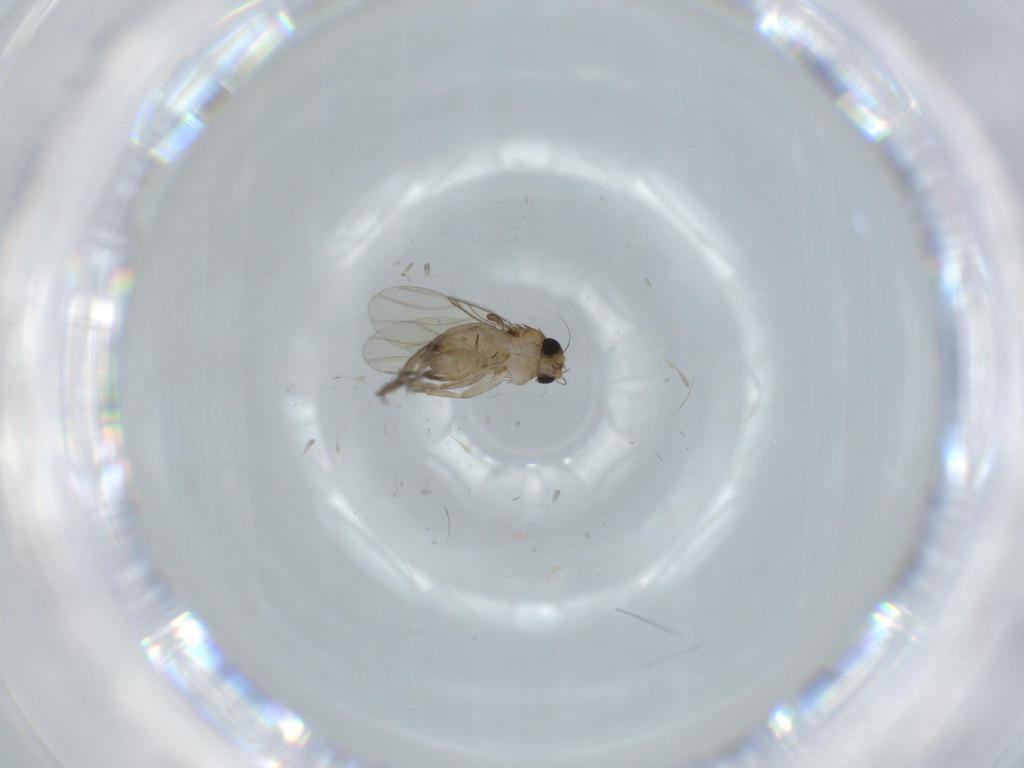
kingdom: Animalia
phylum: Arthropoda
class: Insecta
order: Diptera
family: Phoridae
